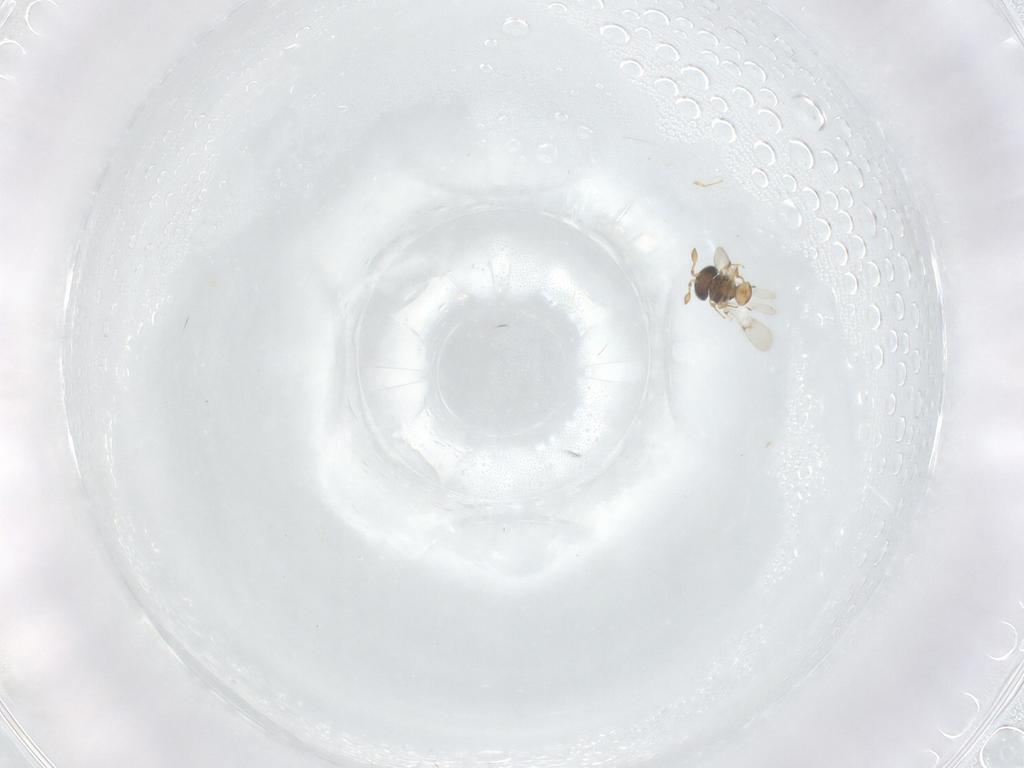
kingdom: Animalia
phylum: Arthropoda
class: Insecta
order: Hymenoptera
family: Scelionidae
